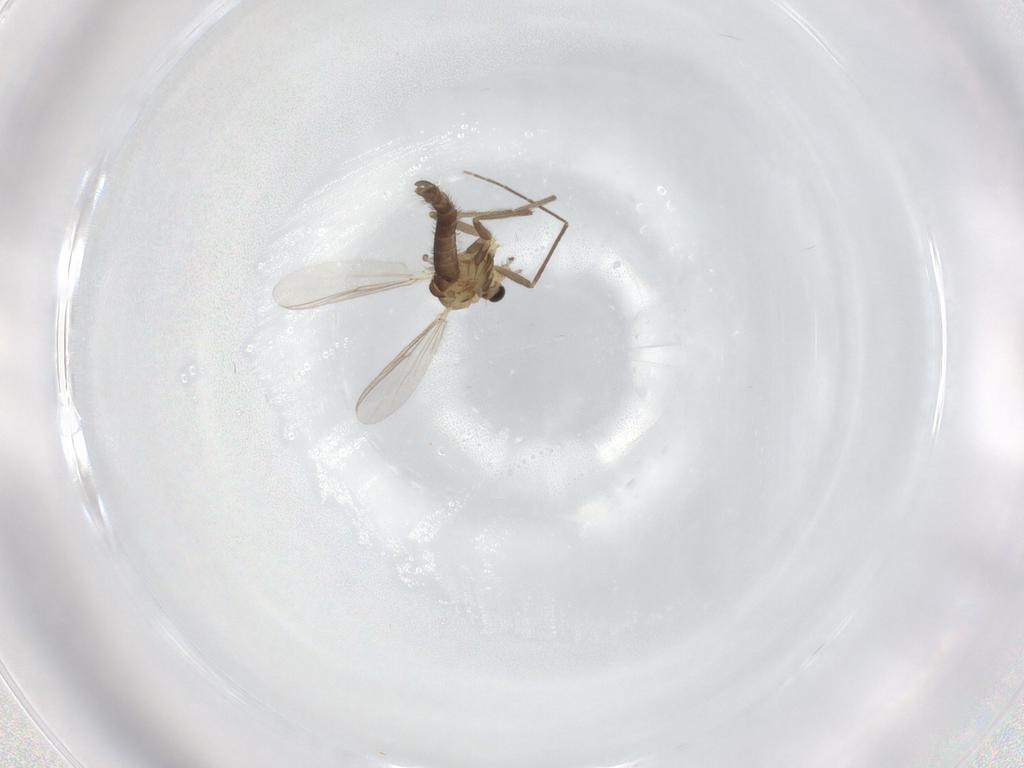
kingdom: Animalia
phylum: Arthropoda
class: Insecta
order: Diptera
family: Chironomidae
